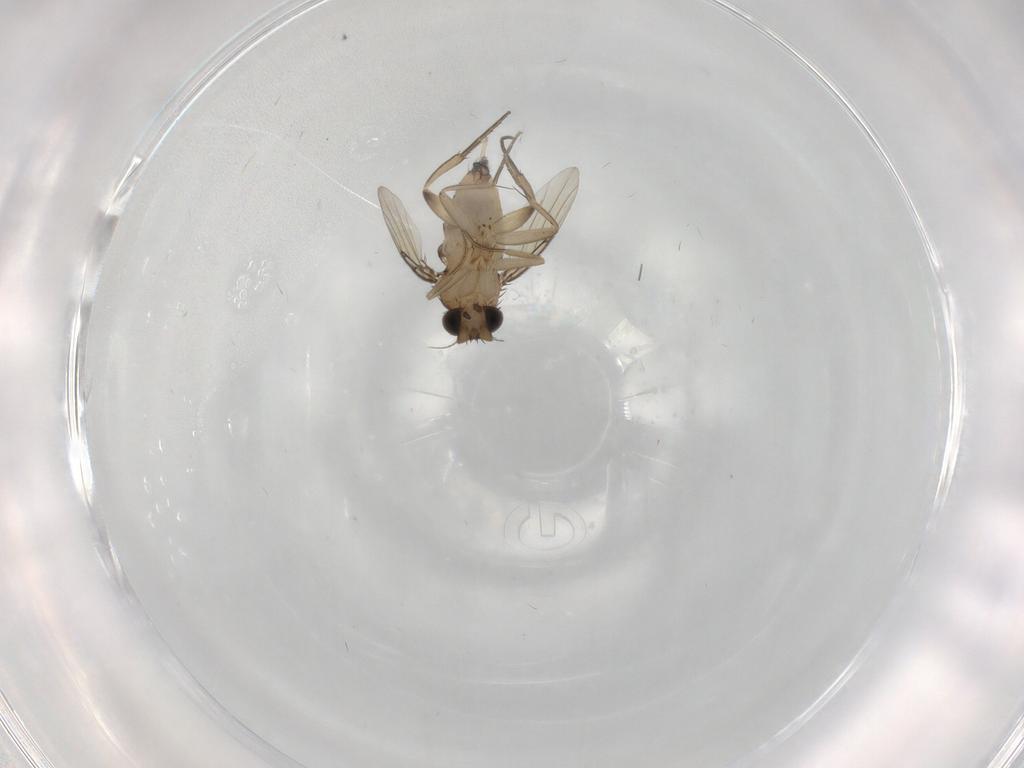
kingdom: Animalia
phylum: Arthropoda
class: Insecta
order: Diptera
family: Phoridae
